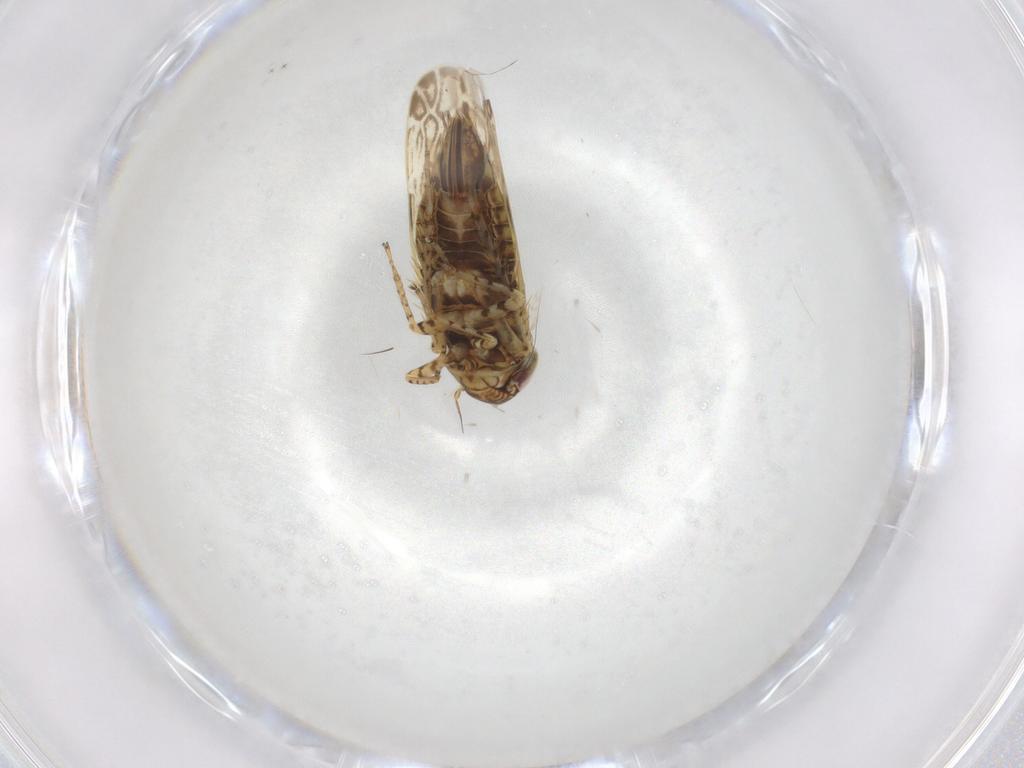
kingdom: Animalia
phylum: Arthropoda
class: Insecta
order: Hemiptera
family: Cicadellidae
